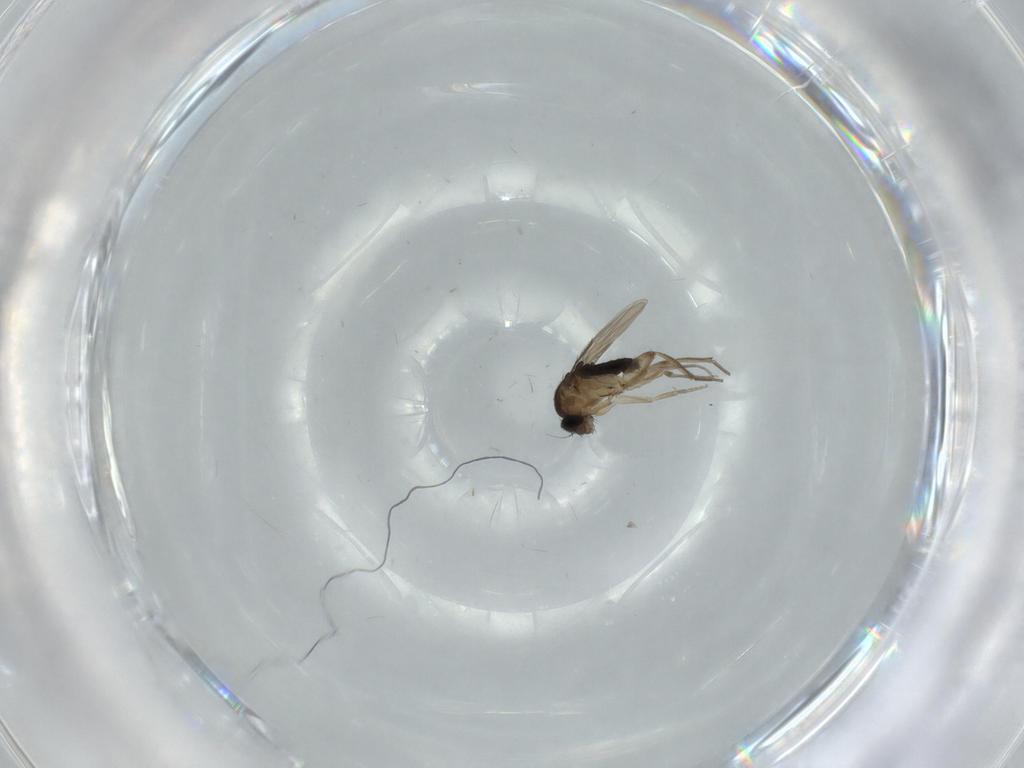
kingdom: Animalia
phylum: Arthropoda
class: Insecta
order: Diptera
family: Phoridae
